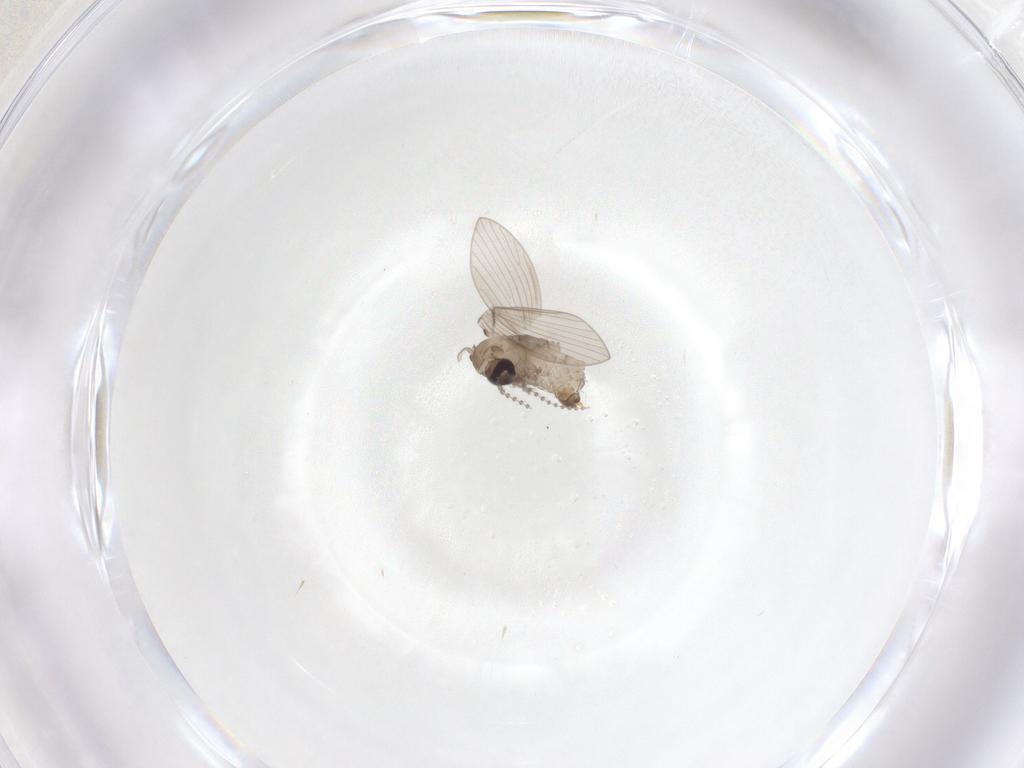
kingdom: Animalia
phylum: Arthropoda
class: Insecta
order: Diptera
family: Psychodidae
